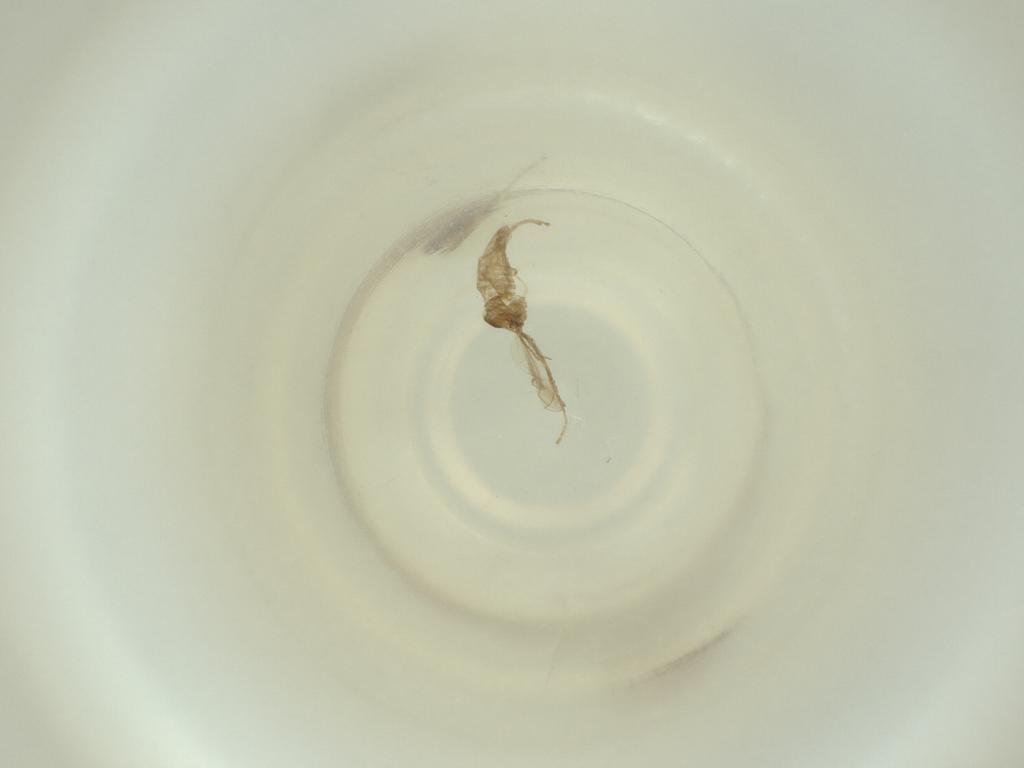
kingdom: Animalia
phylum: Arthropoda
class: Insecta
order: Diptera
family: Cecidomyiidae
